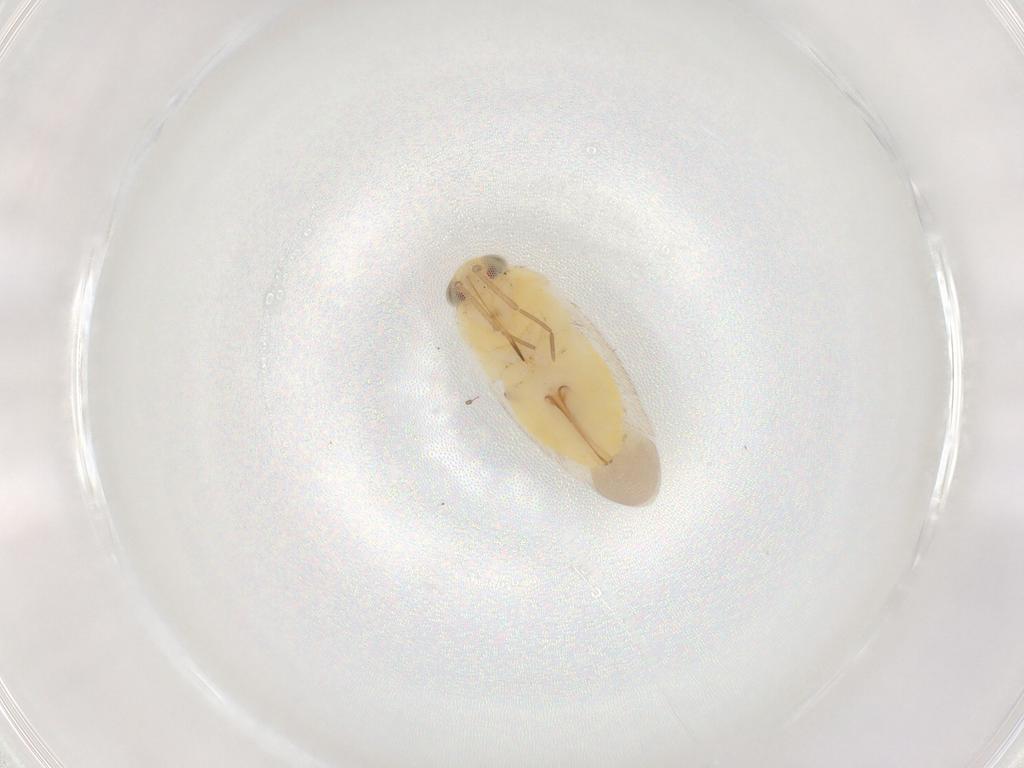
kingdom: Animalia
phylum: Arthropoda
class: Insecta
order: Hemiptera
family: Miridae
